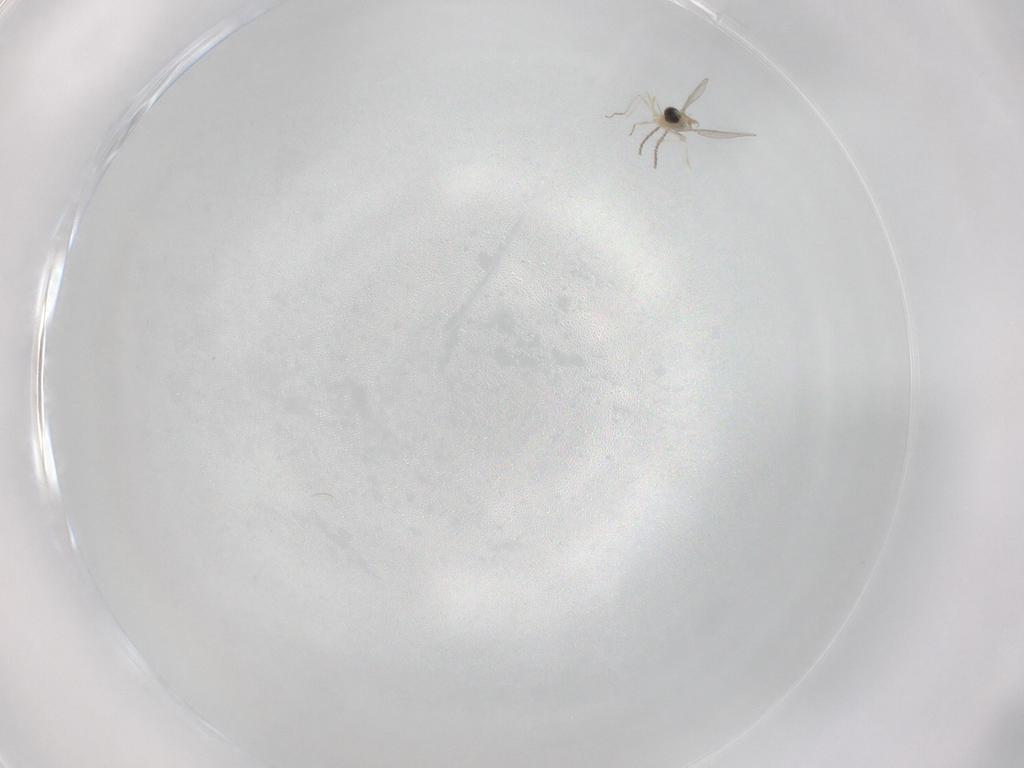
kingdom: Animalia
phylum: Arthropoda
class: Insecta
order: Diptera
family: Cecidomyiidae
